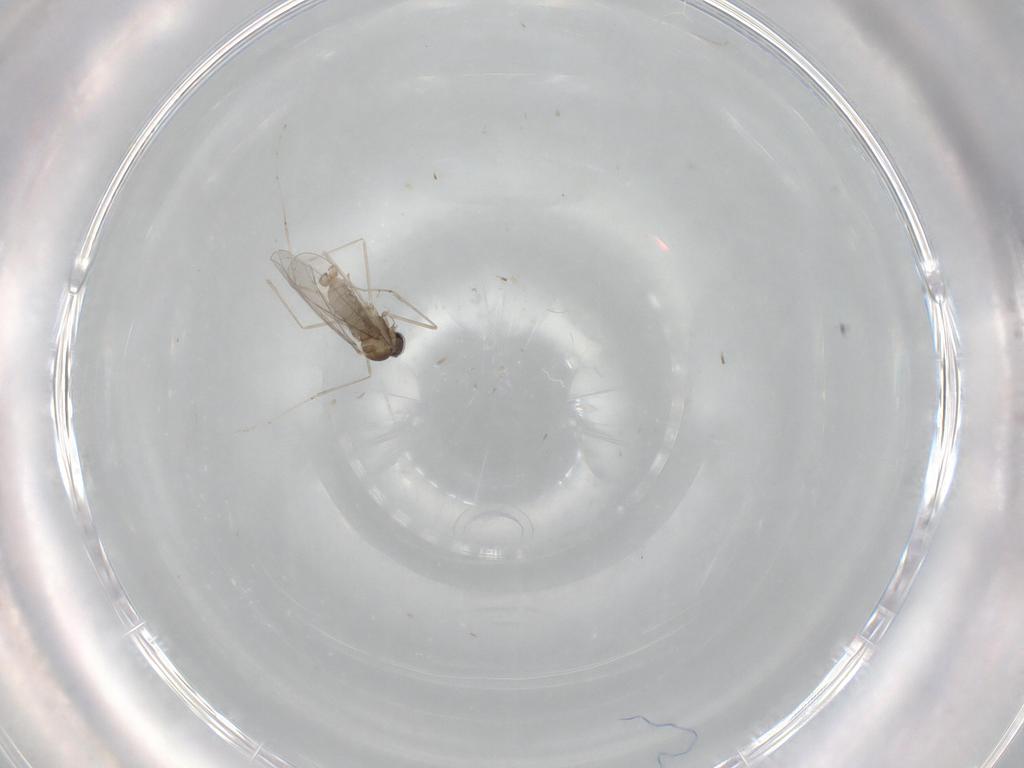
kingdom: Animalia
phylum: Arthropoda
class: Insecta
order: Diptera
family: Cecidomyiidae
